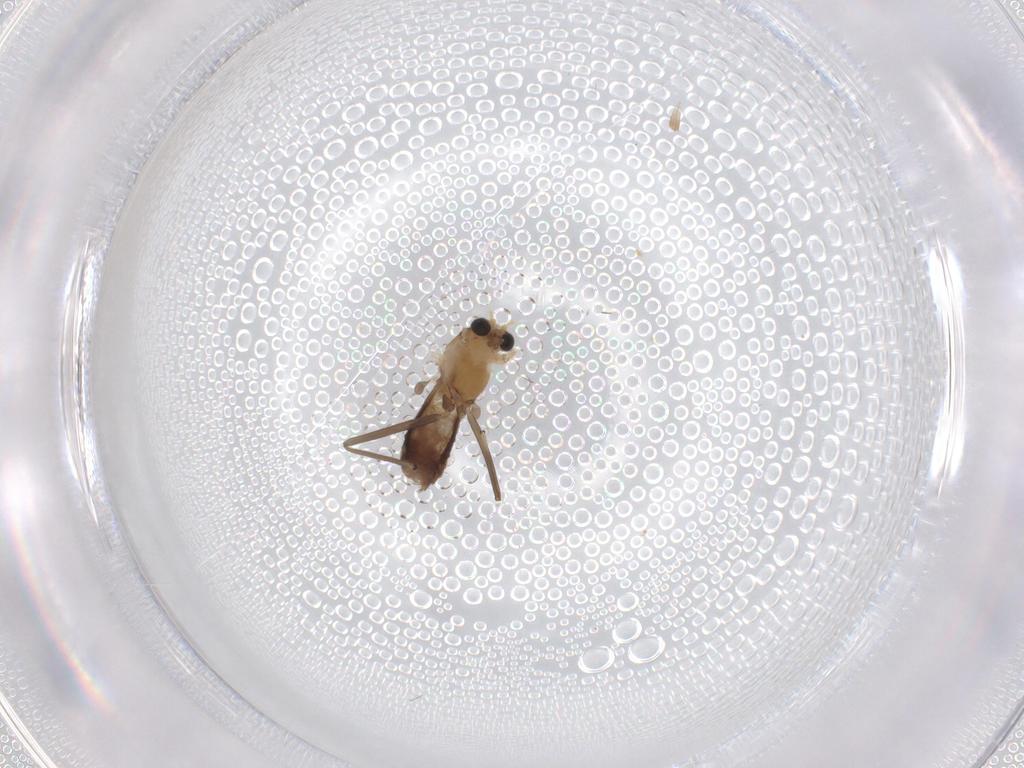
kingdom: Animalia
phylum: Arthropoda
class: Insecta
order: Diptera
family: Chironomidae
